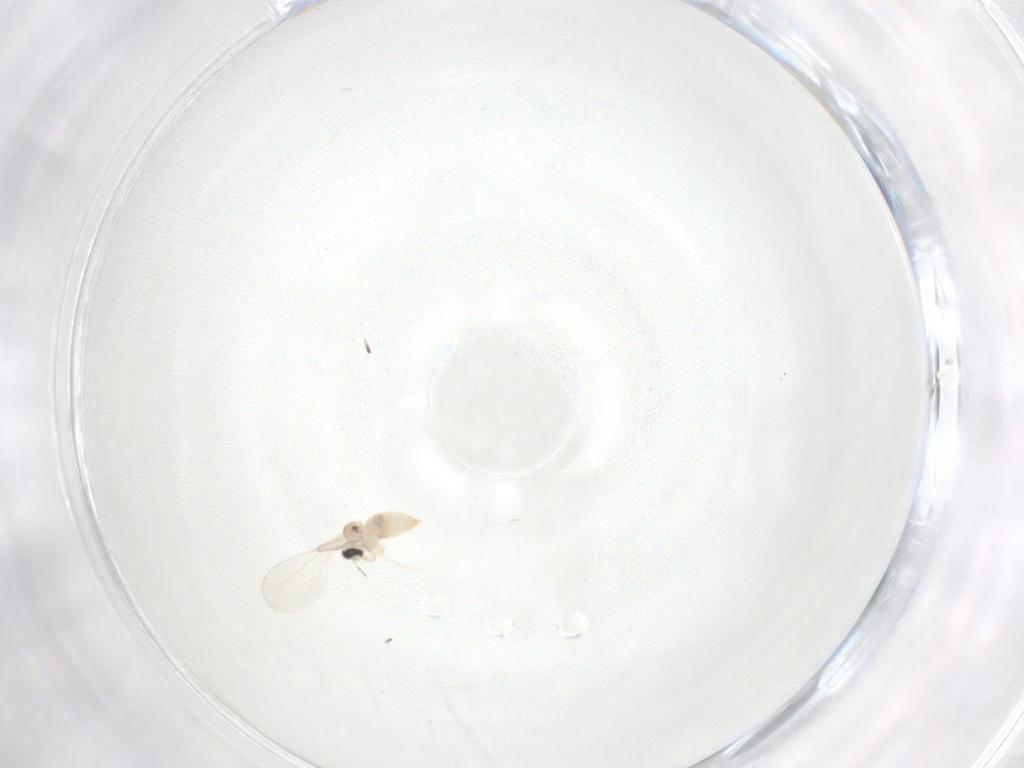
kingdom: Animalia
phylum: Arthropoda
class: Insecta
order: Diptera
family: Cecidomyiidae
